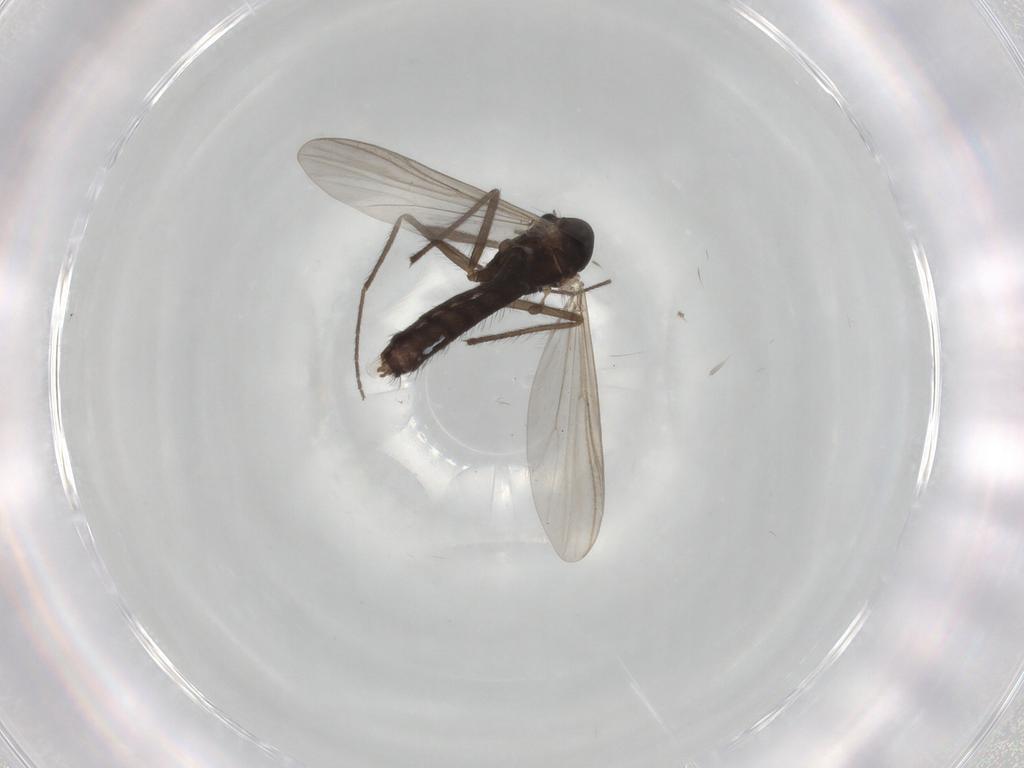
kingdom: Animalia
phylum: Arthropoda
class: Insecta
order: Diptera
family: Chironomidae
